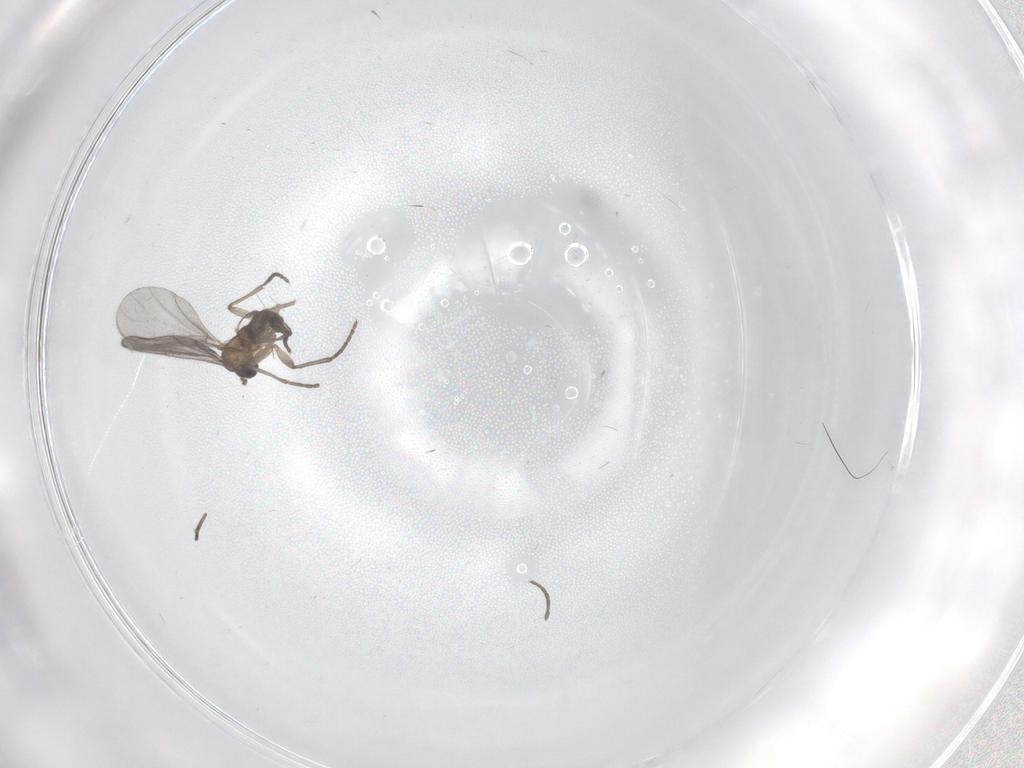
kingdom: Animalia
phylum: Arthropoda
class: Insecta
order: Diptera
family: Sciaridae
